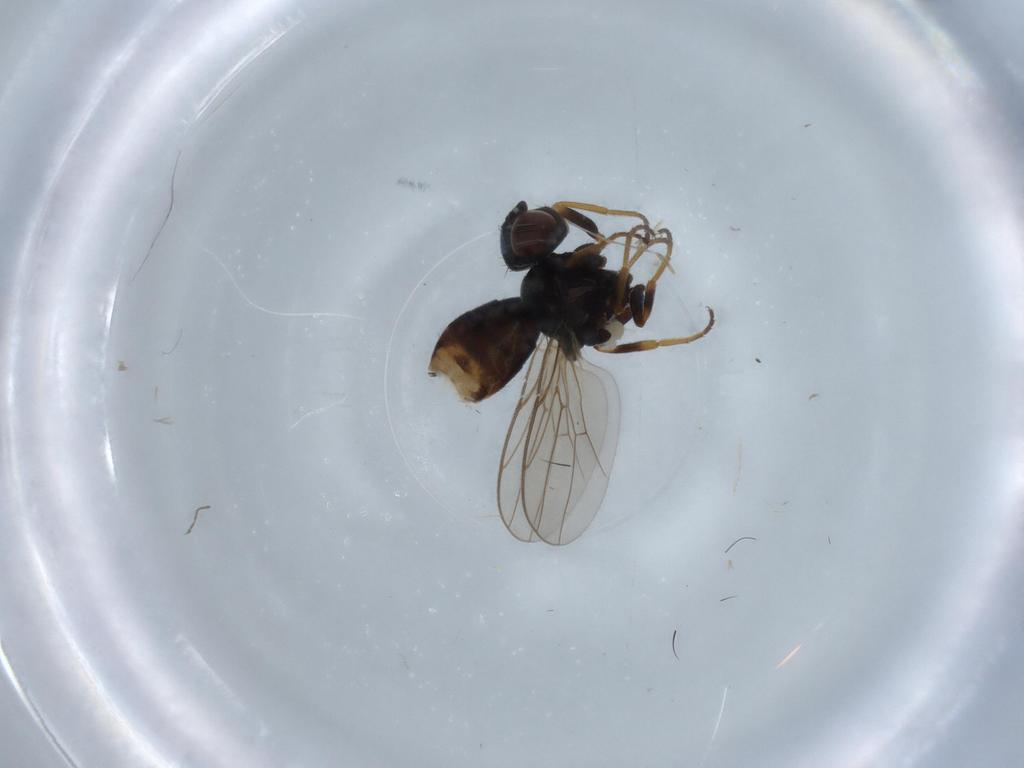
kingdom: Animalia
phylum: Arthropoda
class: Insecta
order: Diptera
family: Chloropidae
